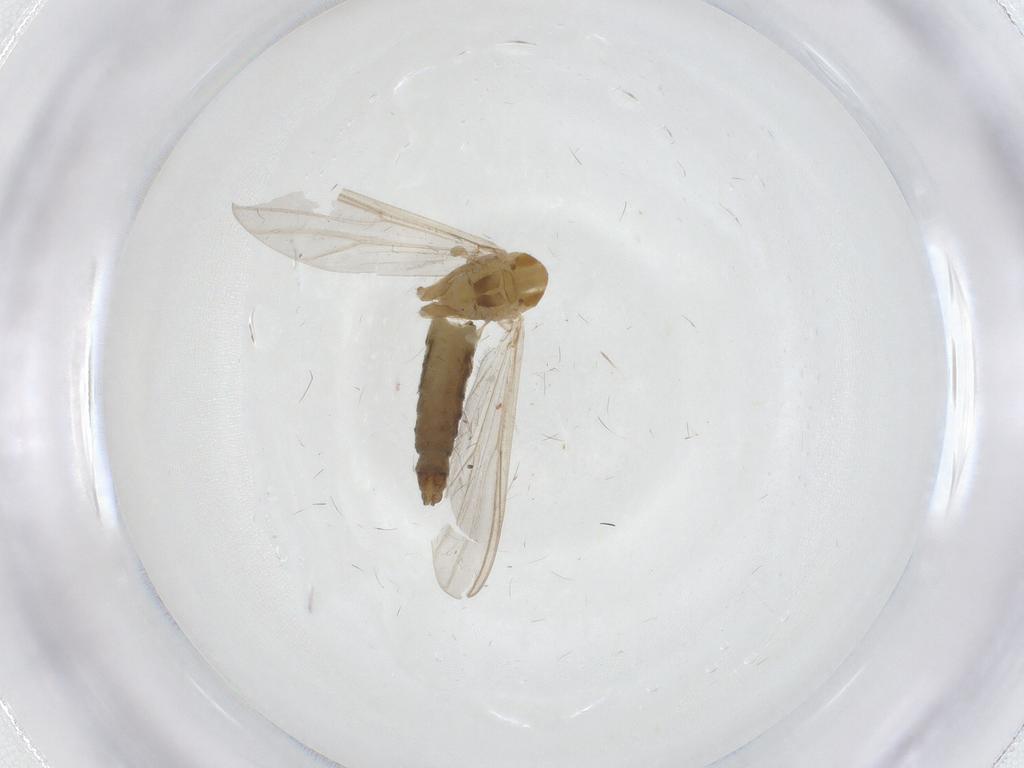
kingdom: Animalia
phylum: Arthropoda
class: Insecta
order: Diptera
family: Chironomidae
